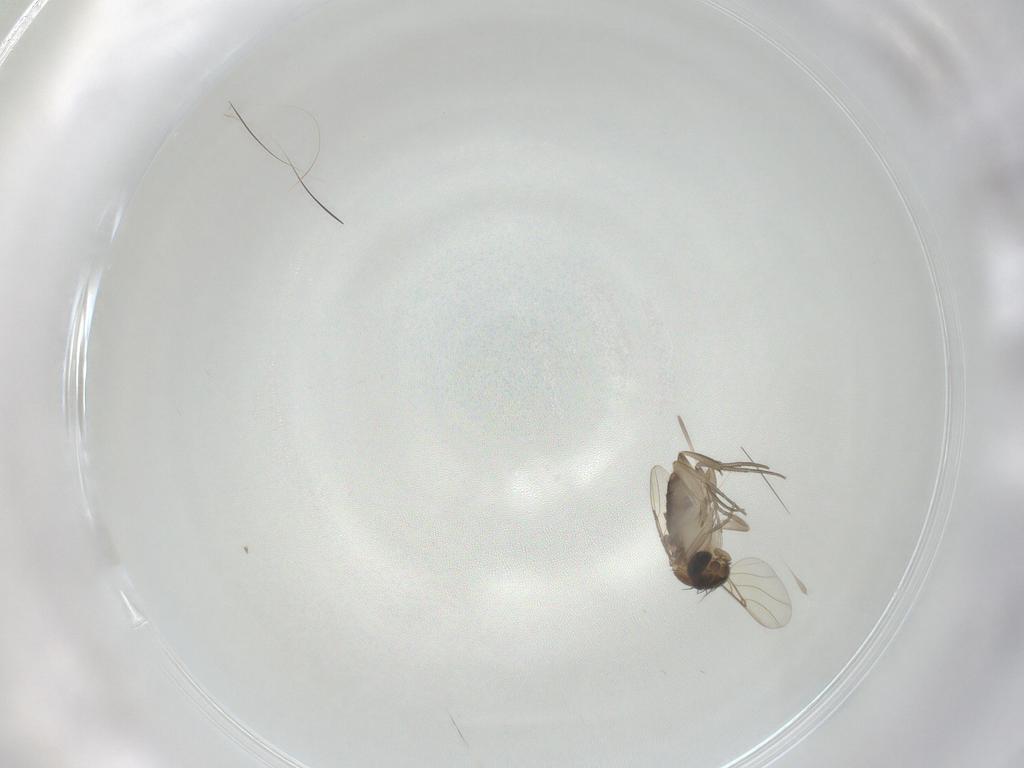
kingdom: Animalia
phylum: Arthropoda
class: Insecta
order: Diptera
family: Phoridae
